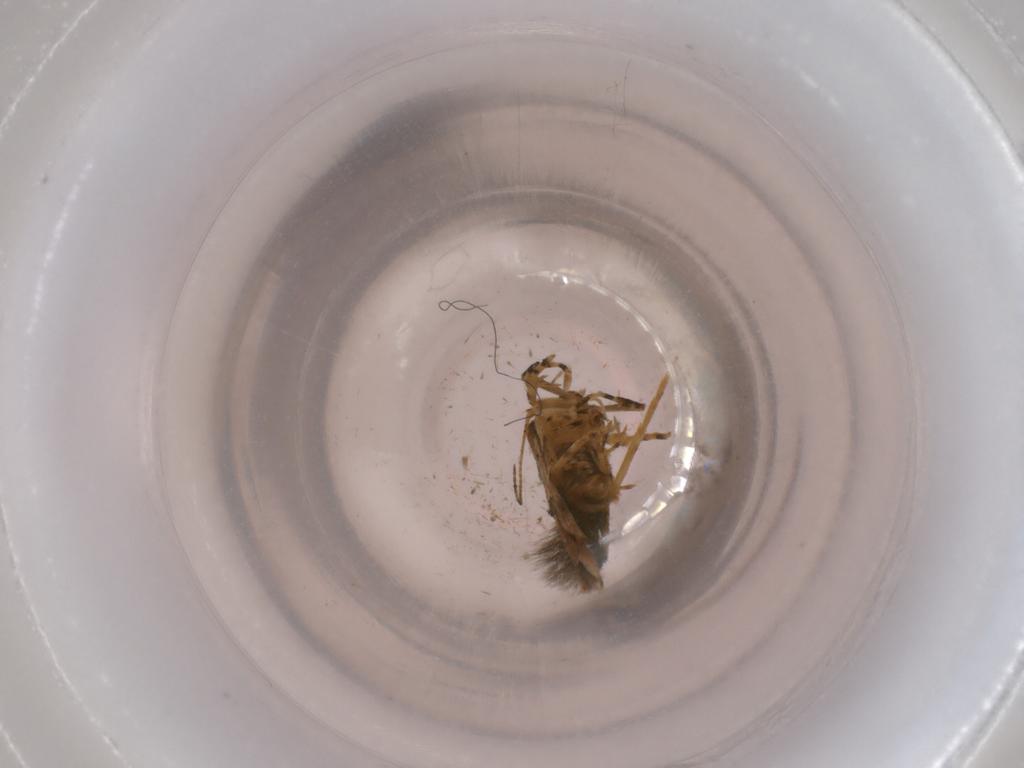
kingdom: Animalia
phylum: Arthropoda
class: Insecta
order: Lepidoptera
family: Cosmopterigidae
